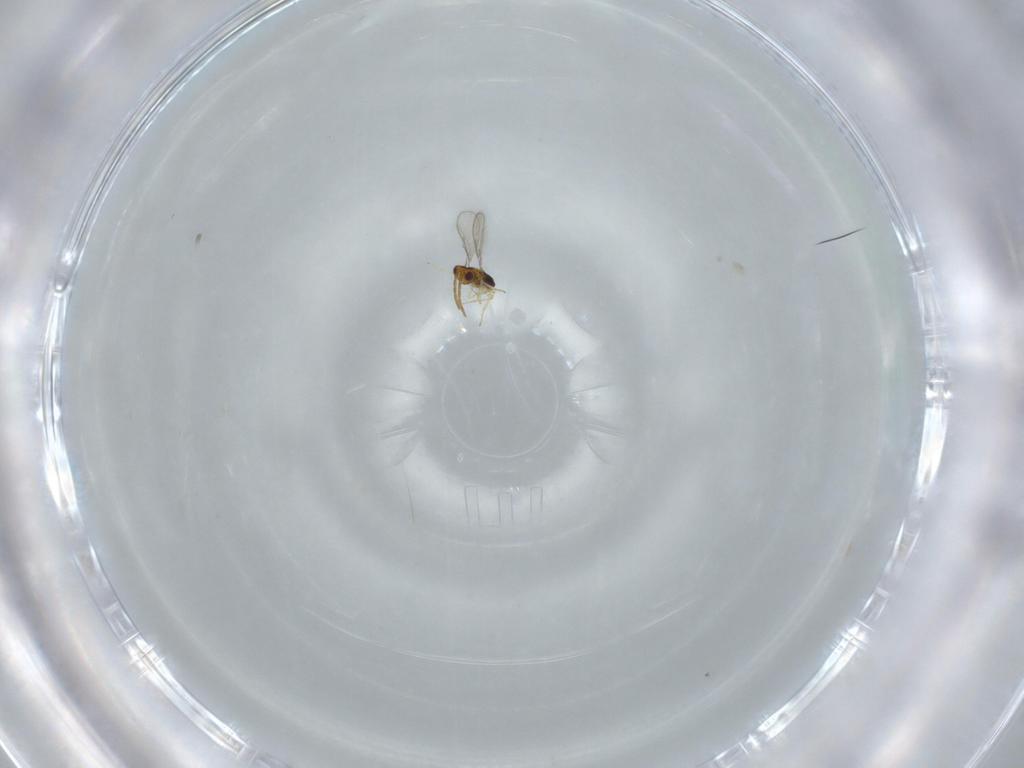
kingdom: Animalia
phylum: Arthropoda
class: Insecta
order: Hymenoptera
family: Aphelinidae
